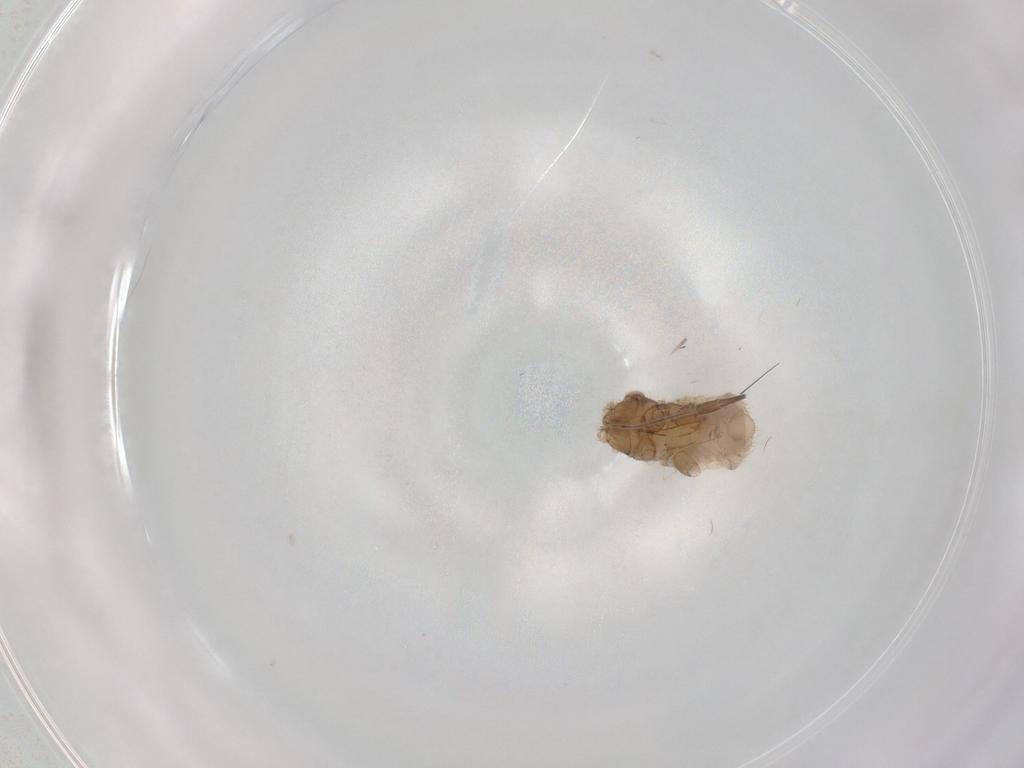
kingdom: Animalia
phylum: Arthropoda
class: Insecta
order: Hemiptera
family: Aphididae
